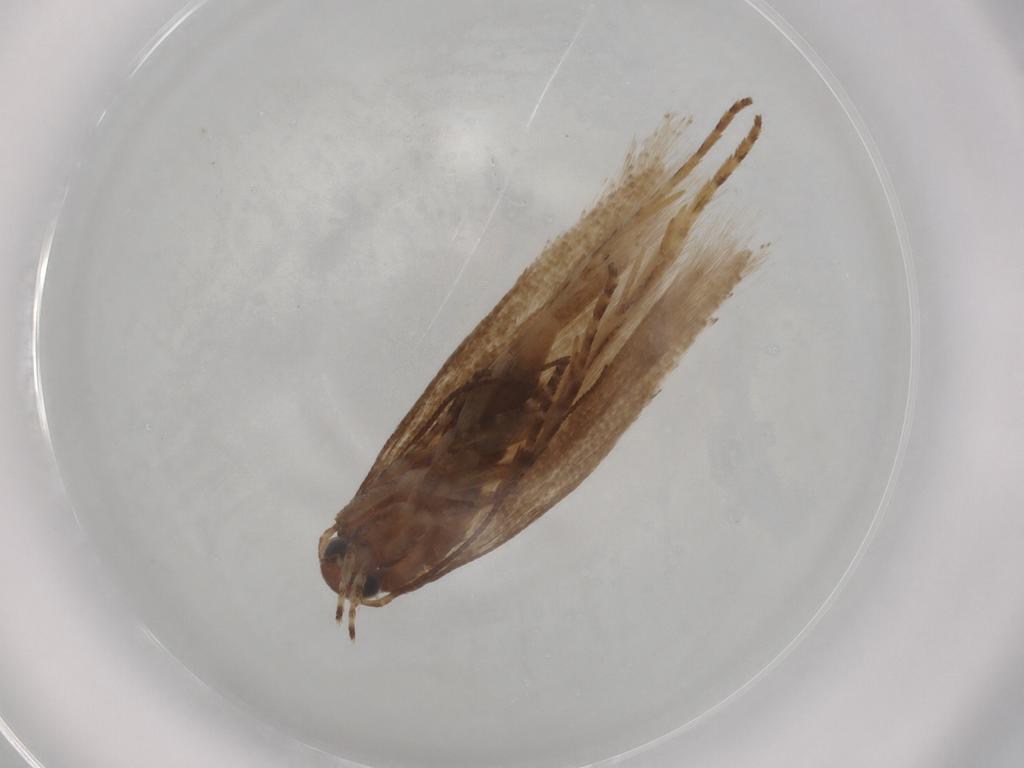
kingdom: Animalia
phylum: Arthropoda
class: Insecta
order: Lepidoptera
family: Gelechiidae
